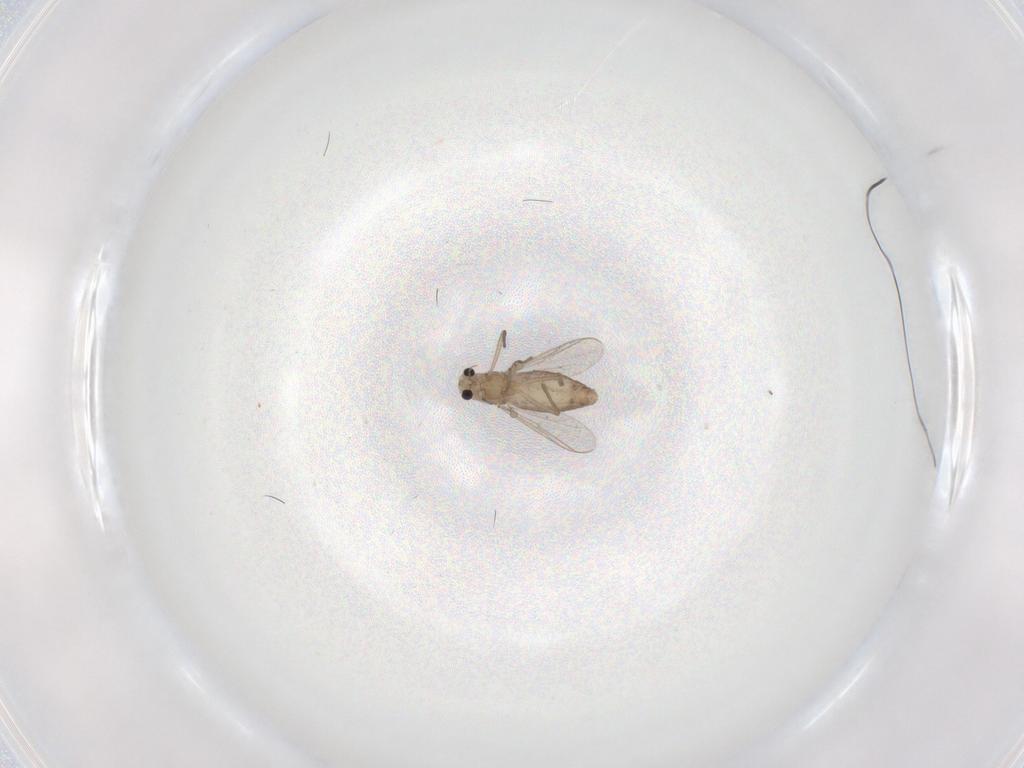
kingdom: Animalia
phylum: Arthropoda
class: Insecta
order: Diptera
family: Chironomidae
